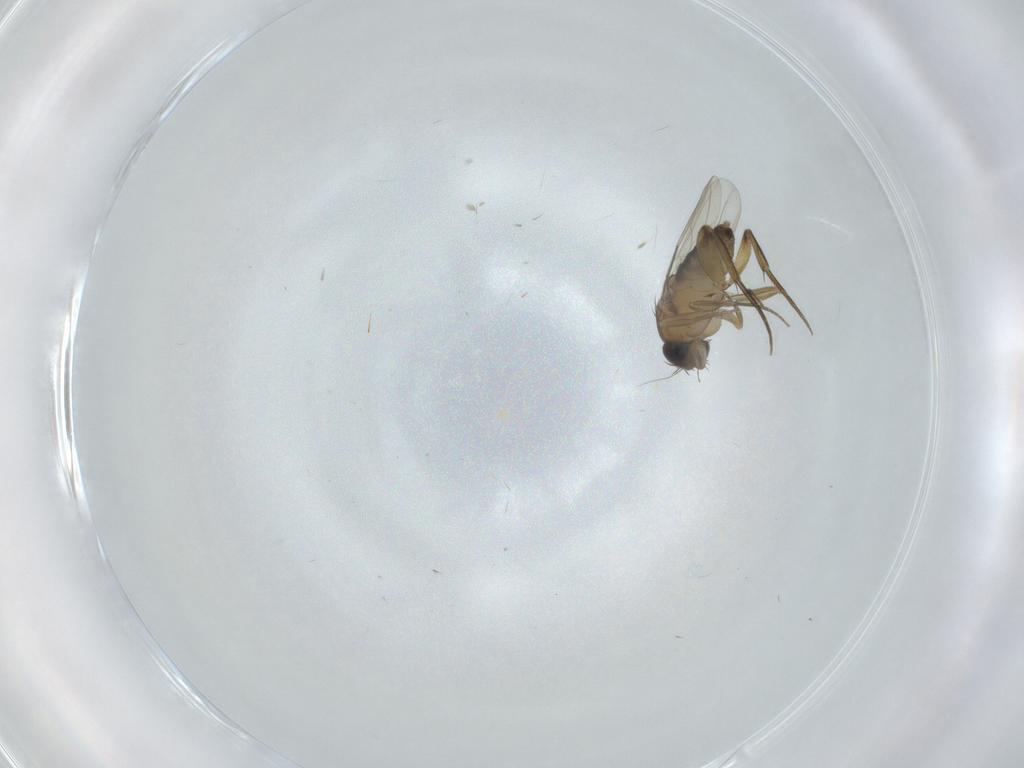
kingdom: Animalia
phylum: Arthropoda
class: Insecta
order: Diptera
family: Phoridae
